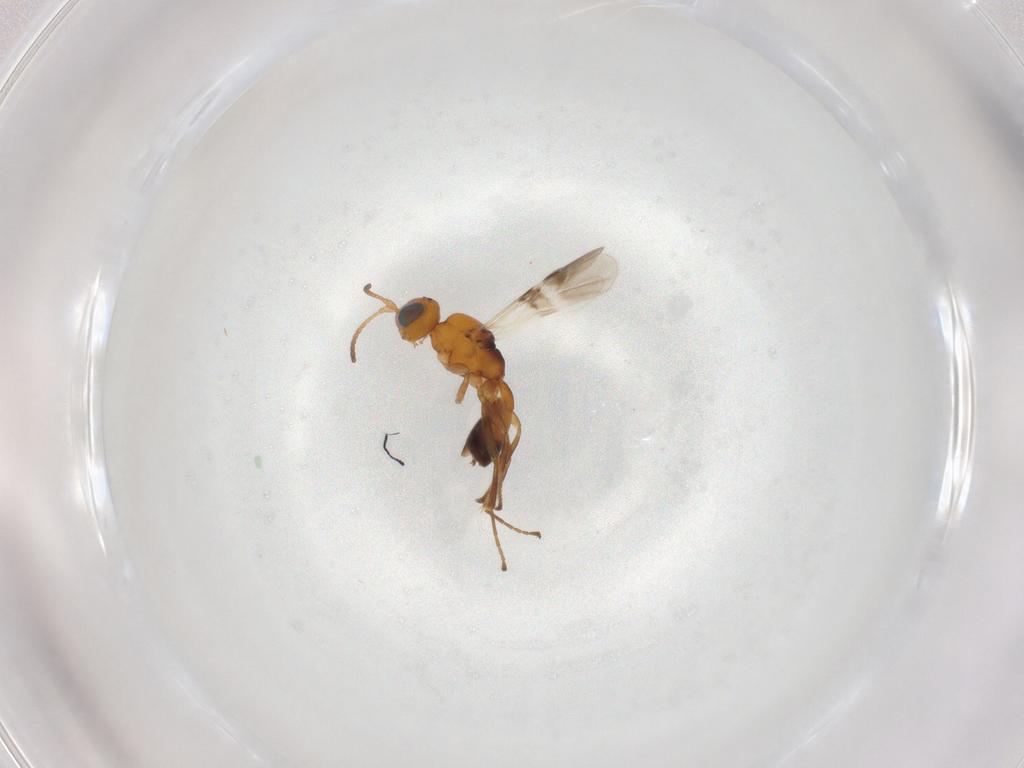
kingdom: Animalia
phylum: Arthropoda
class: Insecta
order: Hymenoptera
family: Braconidae
